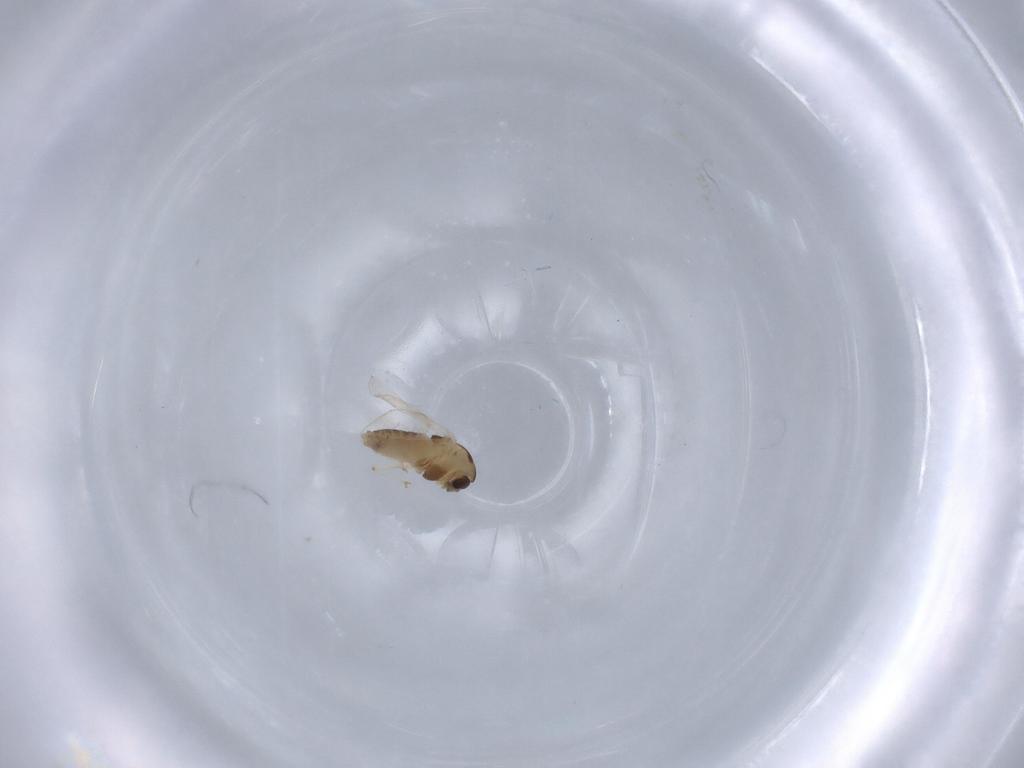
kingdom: Animalia
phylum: Arthropoda
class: Insecta
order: Diptera
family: Chironomidae
